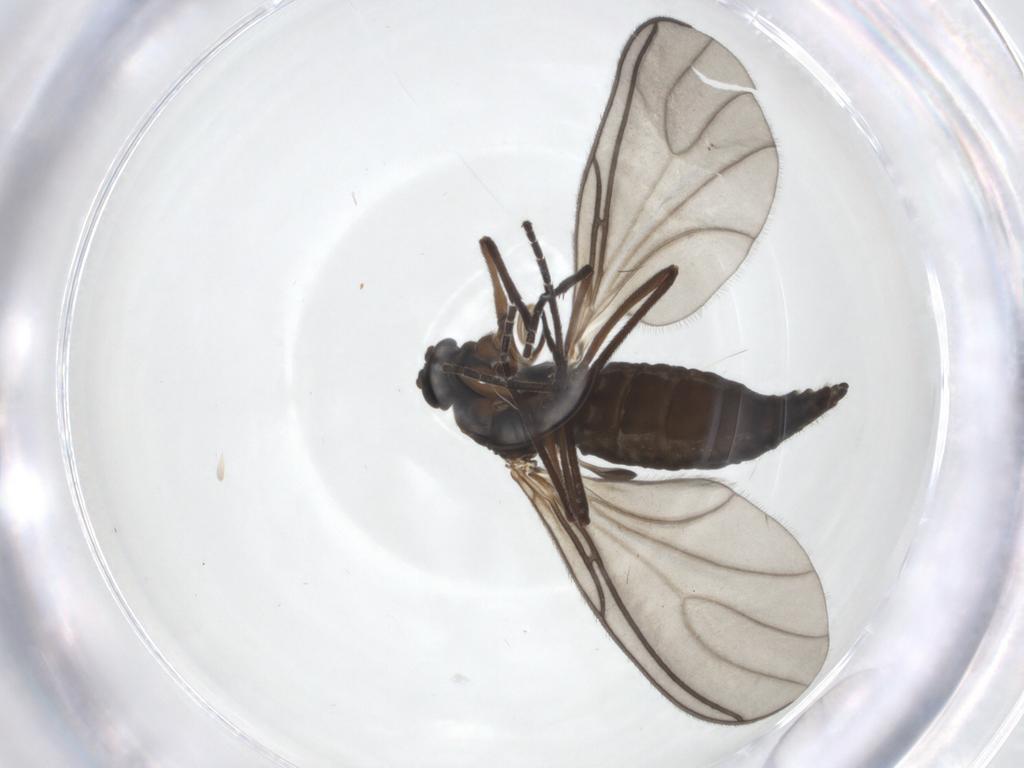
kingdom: Animalia
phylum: Arthropoda
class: Insecta
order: Diptera
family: Sciaridae
